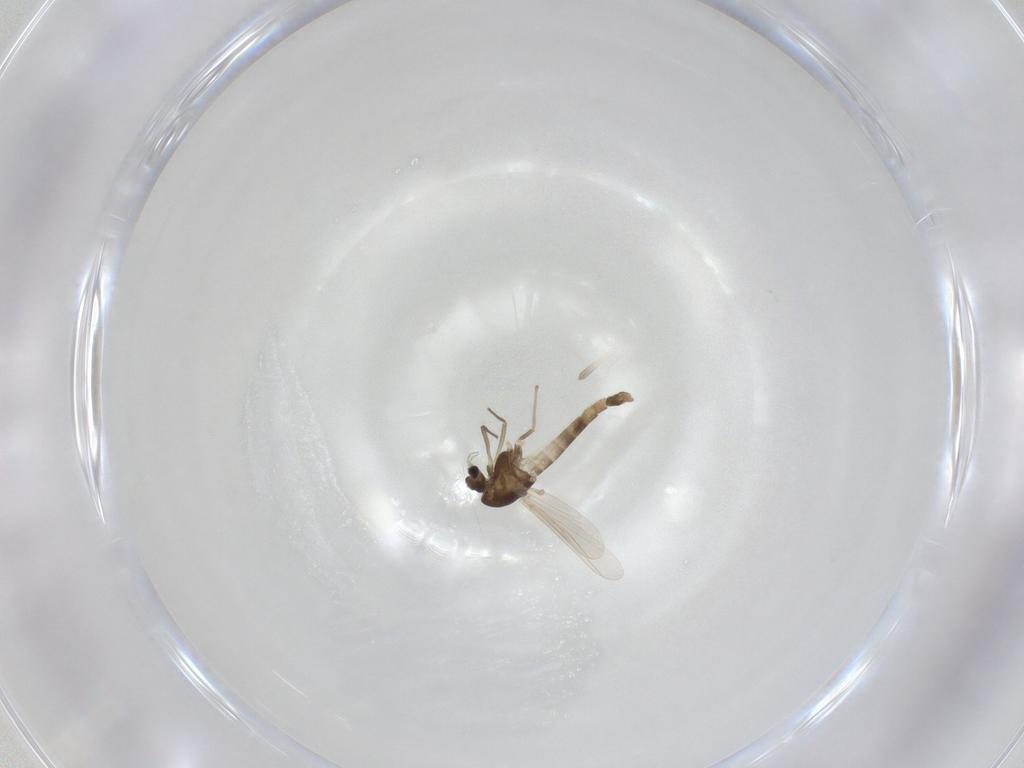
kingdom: Animalia
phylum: Arthropoda
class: Insecta
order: Diptera
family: Chironomidae
